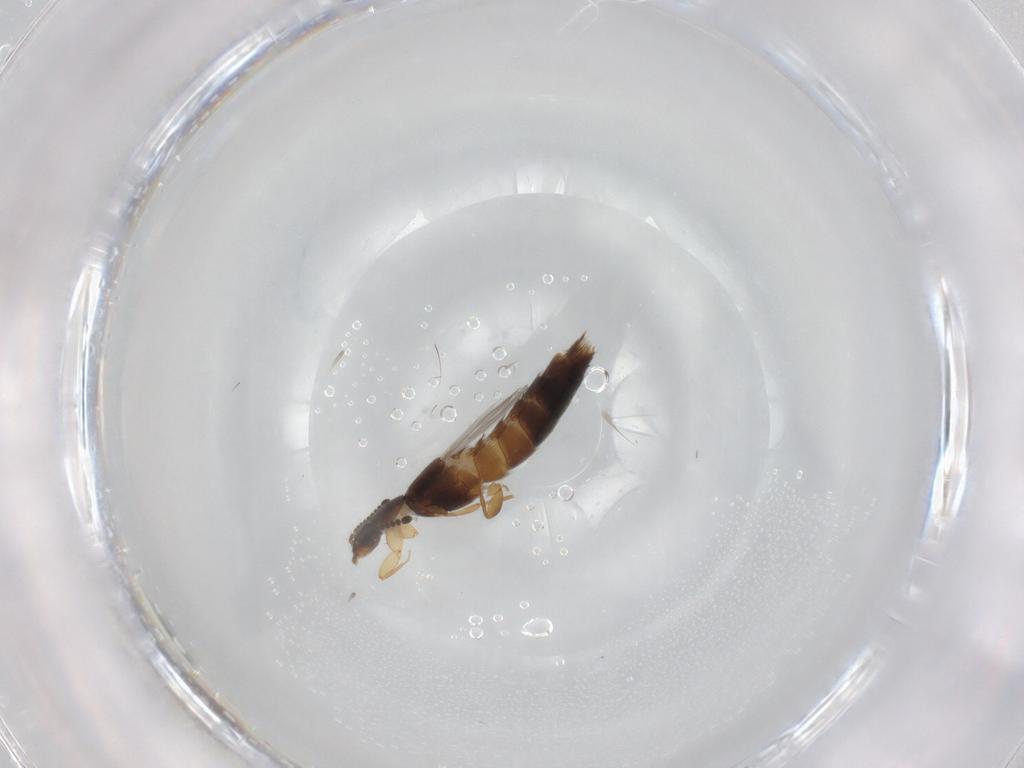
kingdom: Animalia
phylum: Arthropoda
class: Insecta
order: Coleoptera
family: Staphylinidae
